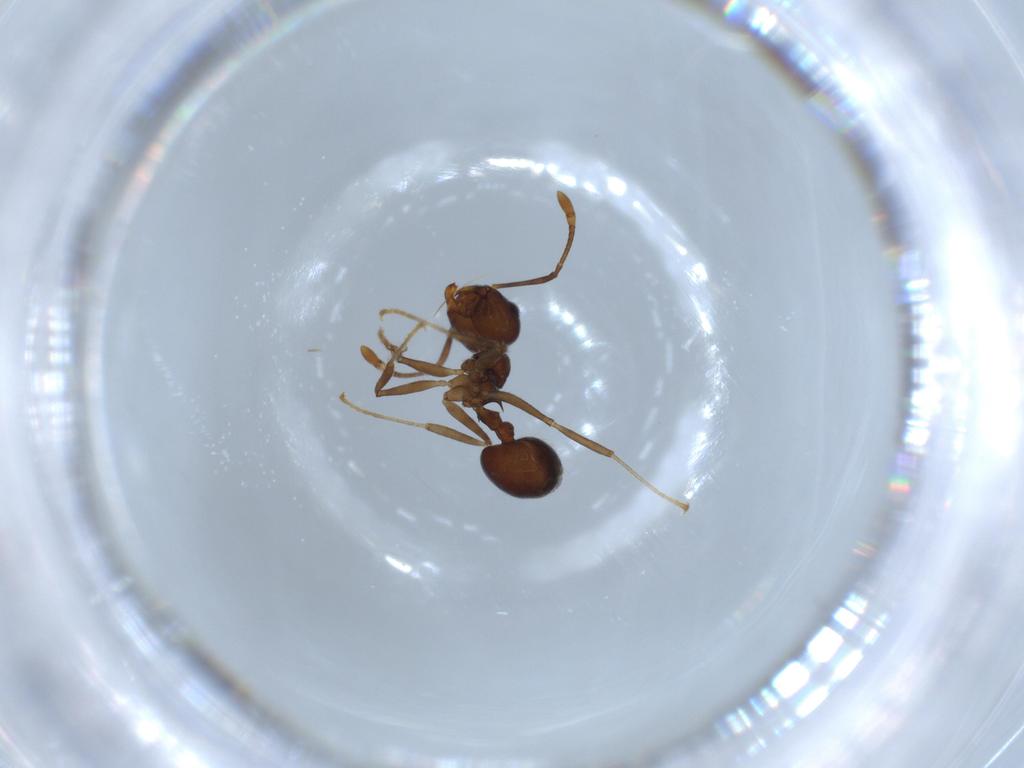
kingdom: Animalia
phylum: Arthropoda
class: Insecta
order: Hymenoptera
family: Formicidae
